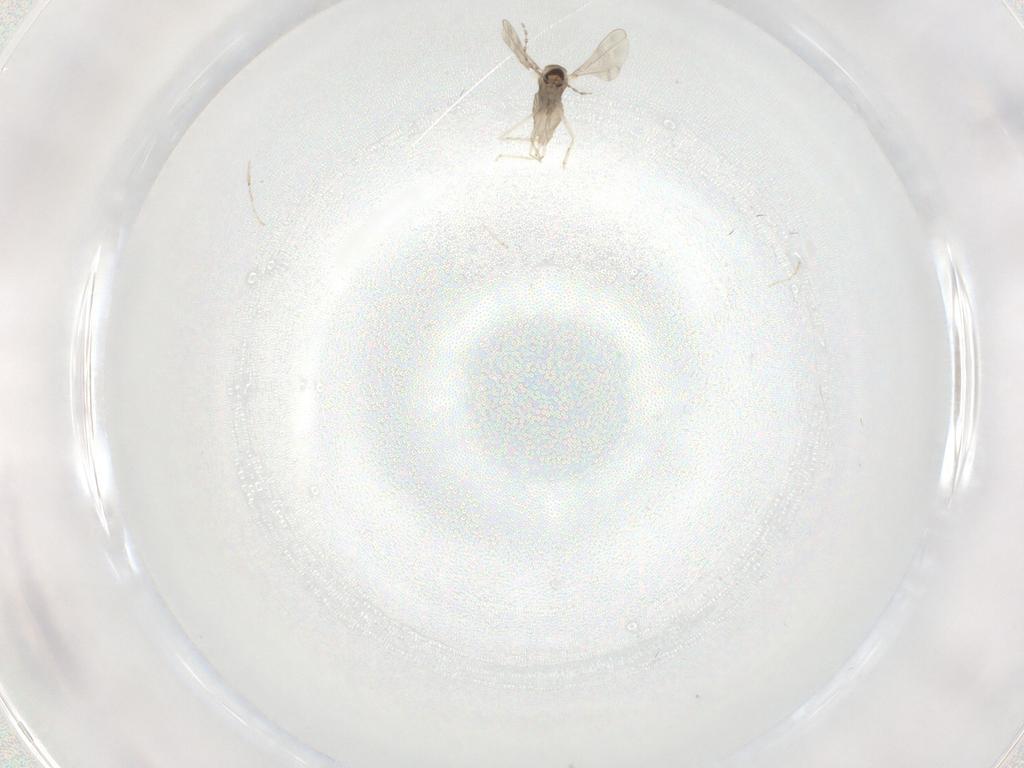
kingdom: Animalia
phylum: Arthropoda
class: Insecta
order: Diptera
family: Cecidomyiidae
